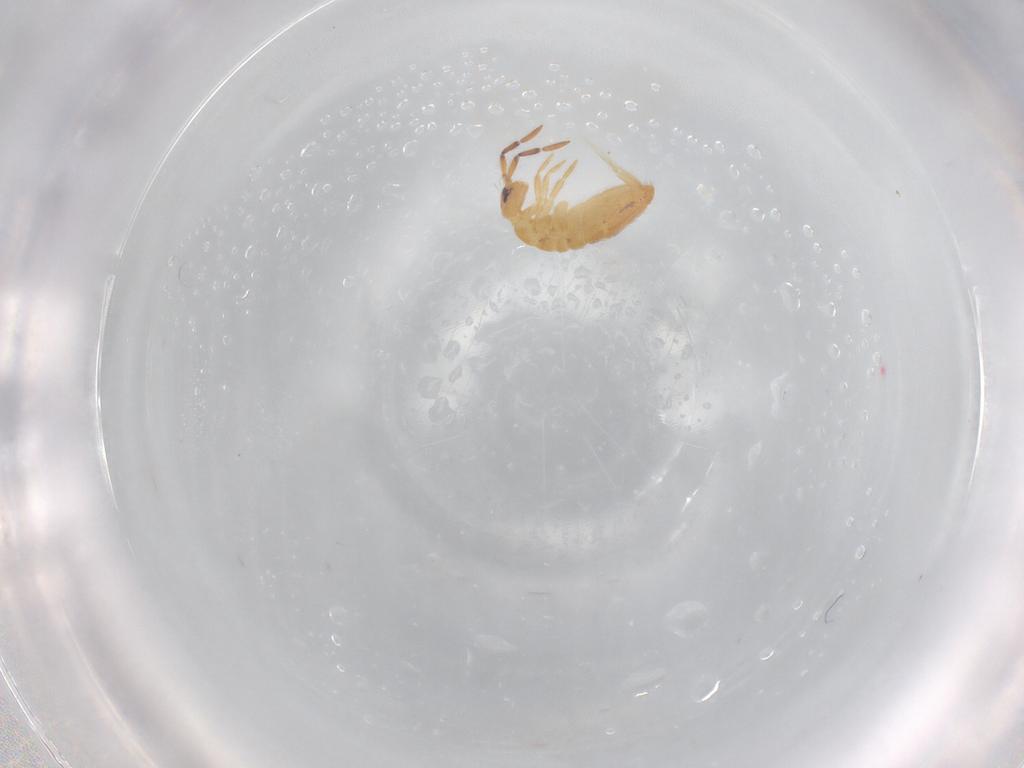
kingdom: Animalia
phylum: Arthropoda
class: Collembola
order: Entomobryomorpha
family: Entomobryidae
